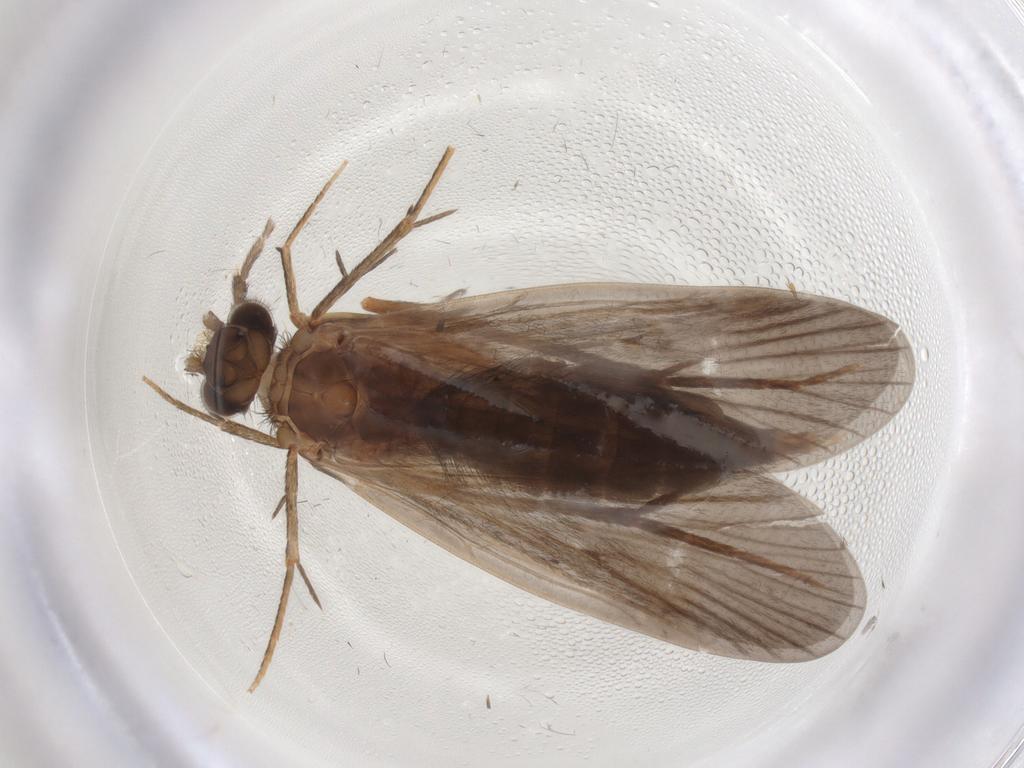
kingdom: Animalia
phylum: Arthropoda
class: Insecta
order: Trichoptera
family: Philopotamidae
